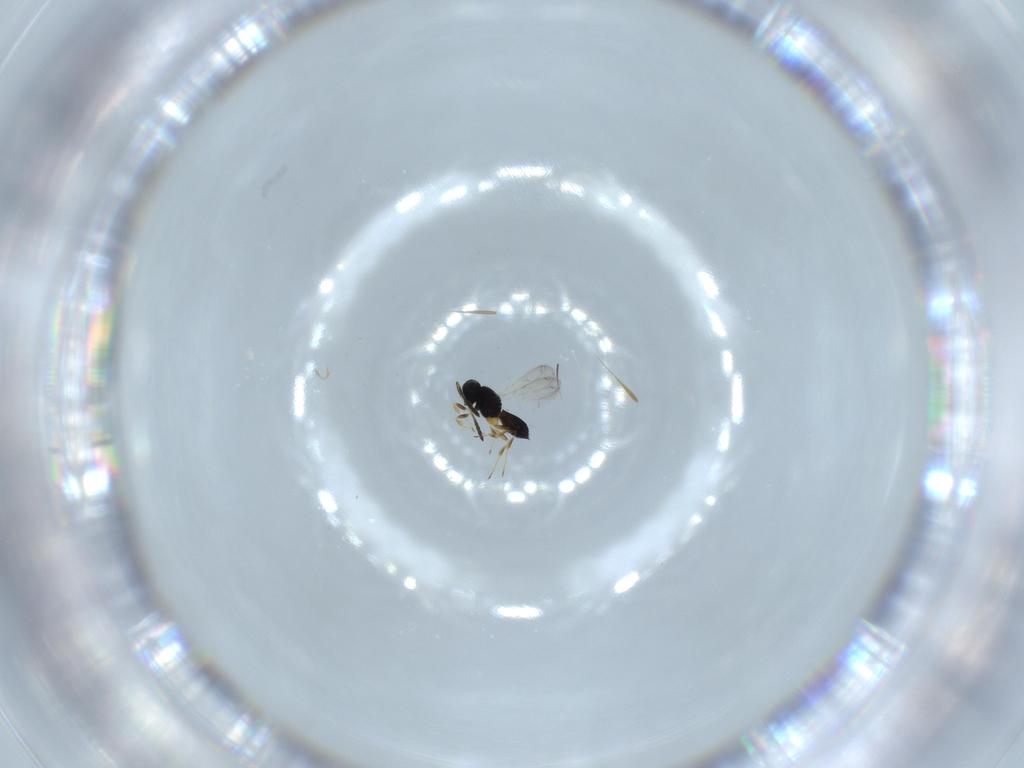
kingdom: Animalia
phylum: Arthropoda
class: Insecta
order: Hymenoptera
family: Scelionidae
